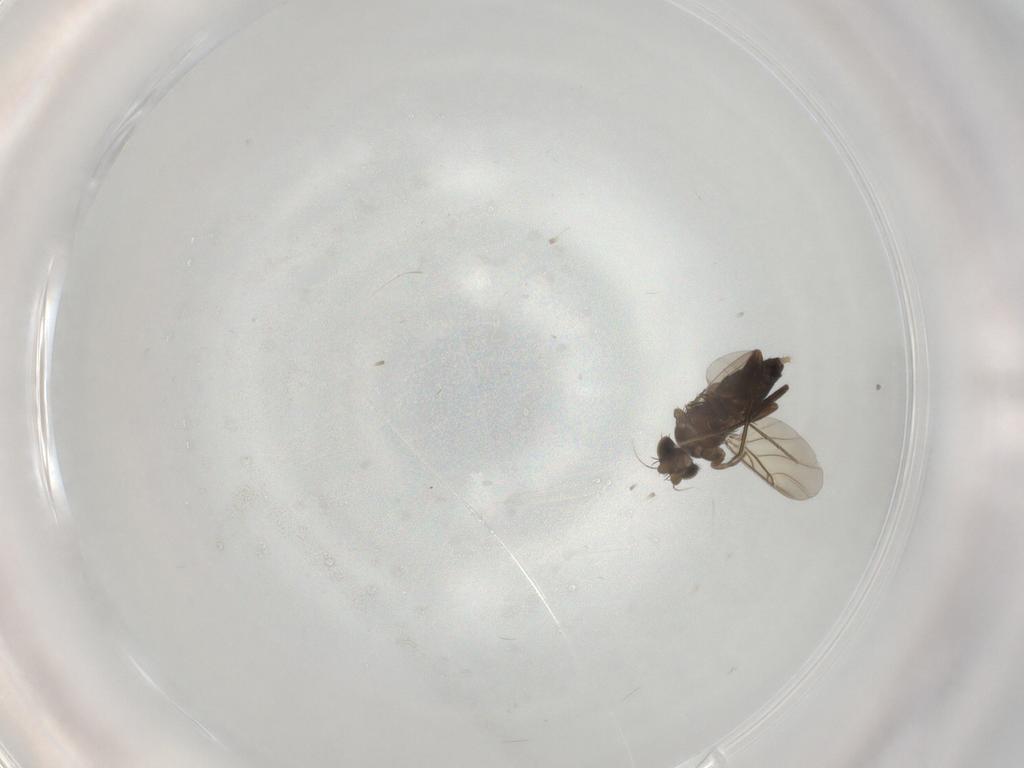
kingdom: Animalia
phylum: Arthropoda
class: Insecta
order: Diptera
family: Phoridae
